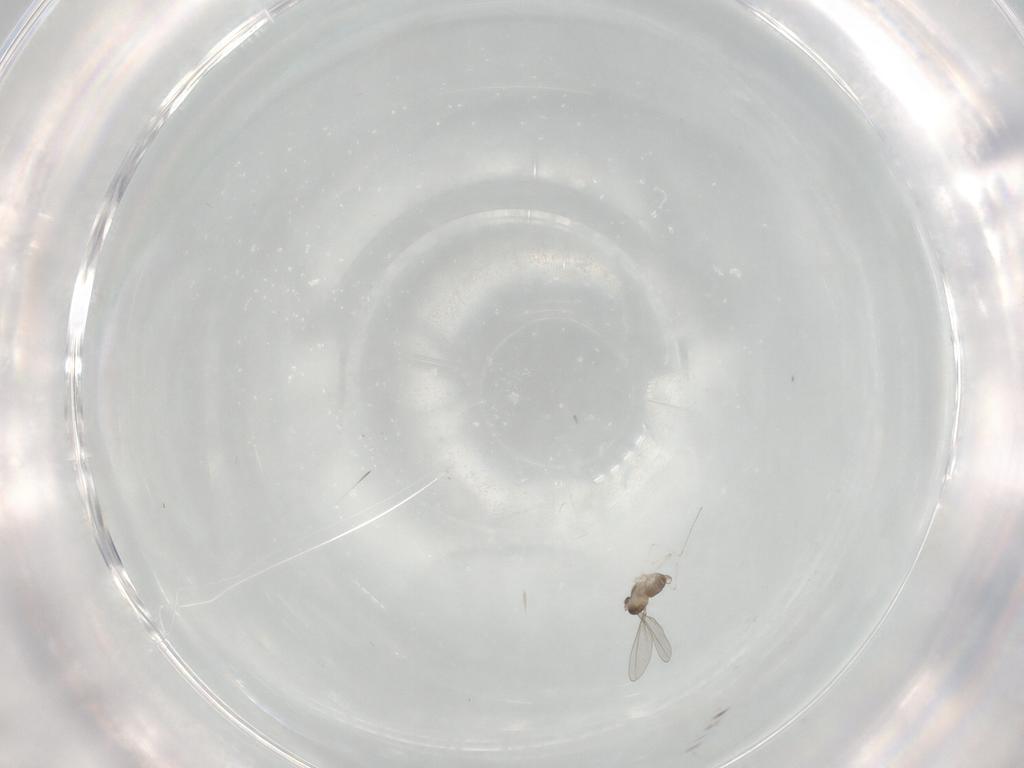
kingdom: Animalia
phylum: Arthropoda
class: Insecta
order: Diptera
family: Cecidomyiidae
